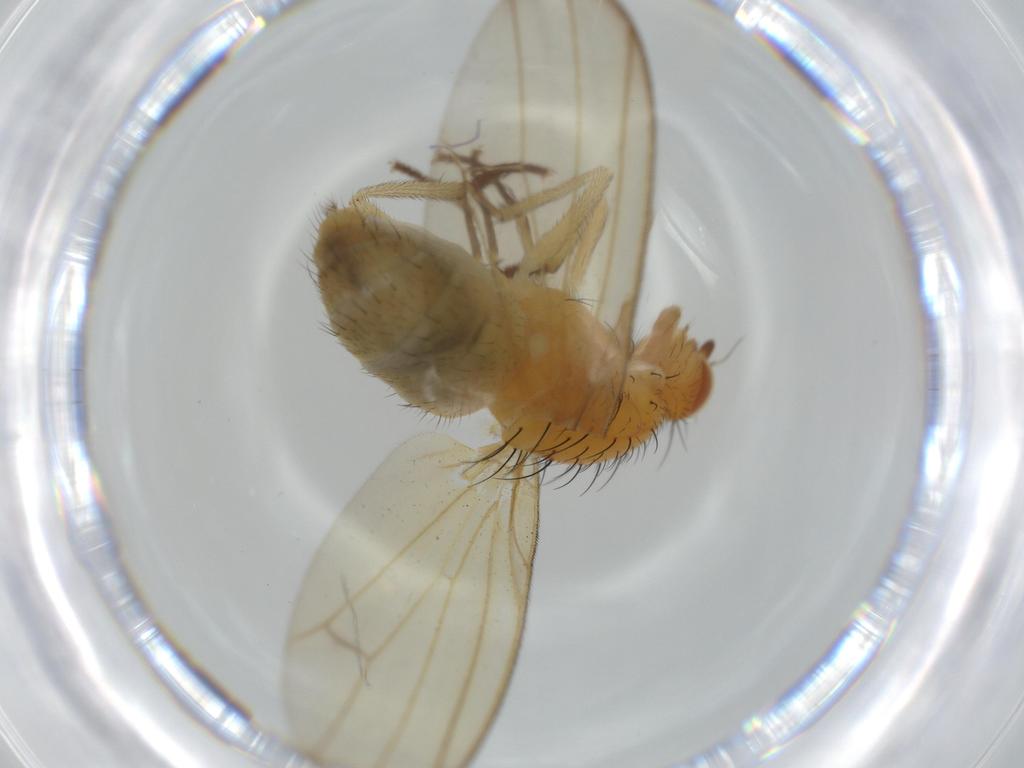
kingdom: Animalia
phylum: Arthropoda
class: Insecta
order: Diptera
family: Lauxaniidae
